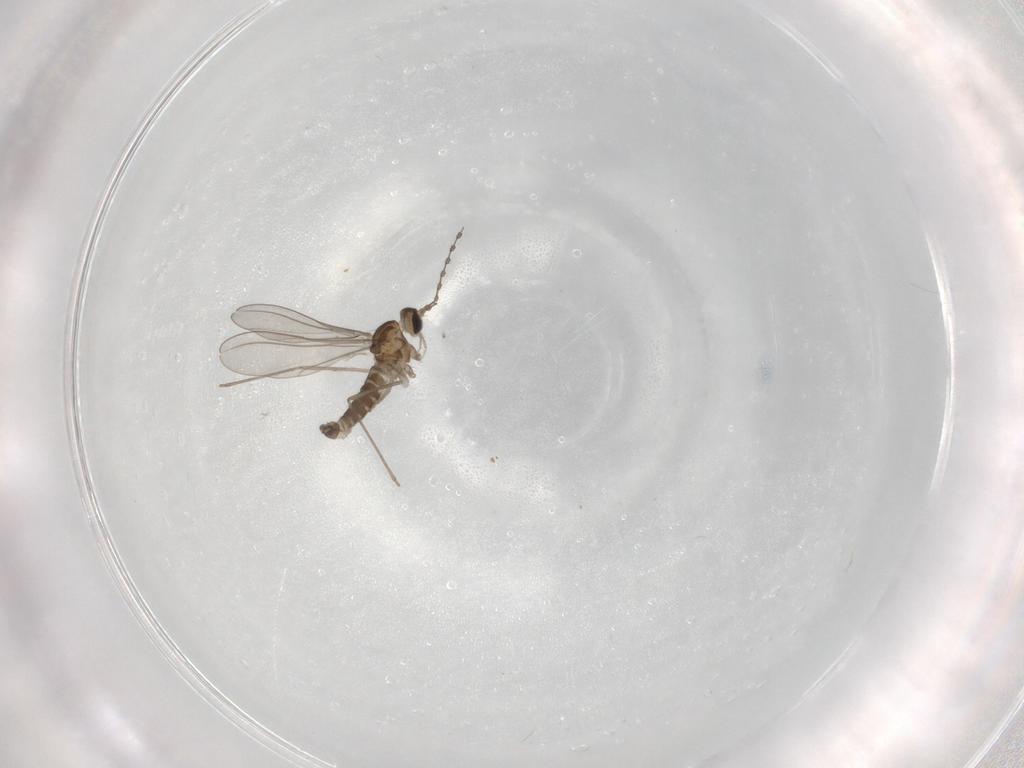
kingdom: Animalia
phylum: Arthropoda
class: Insecta
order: Diptera
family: Cecidomyiidae
